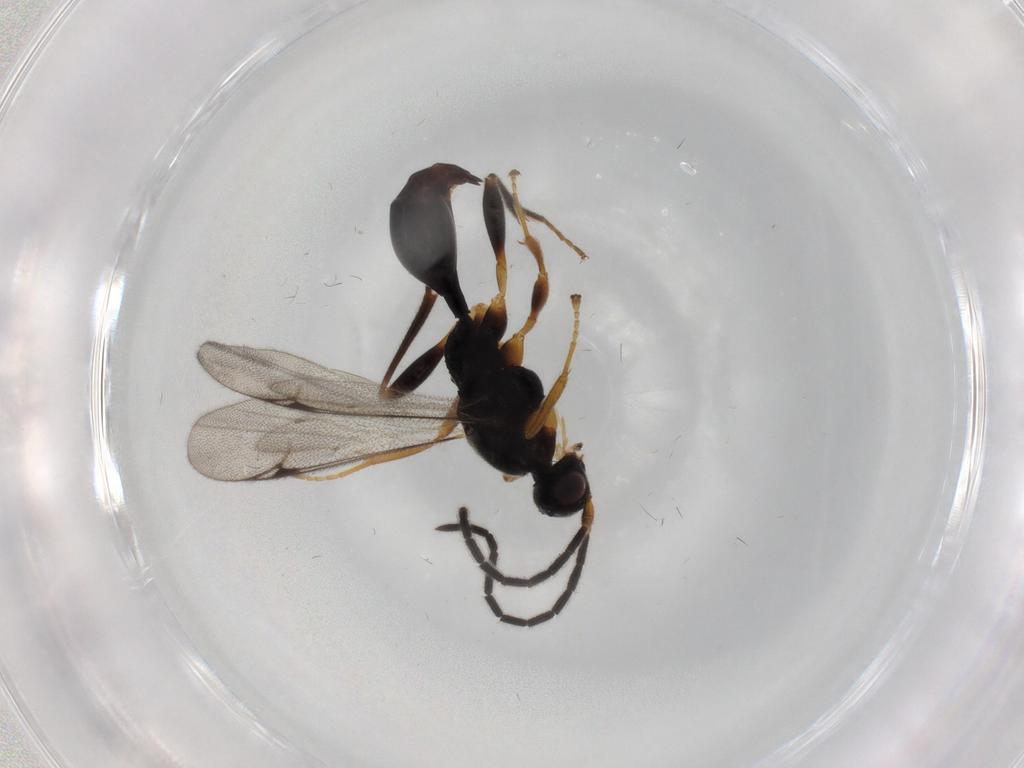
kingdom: Animalia
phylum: Arthropoda
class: Insecta
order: Hymenoptera
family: Proctotrupidae
